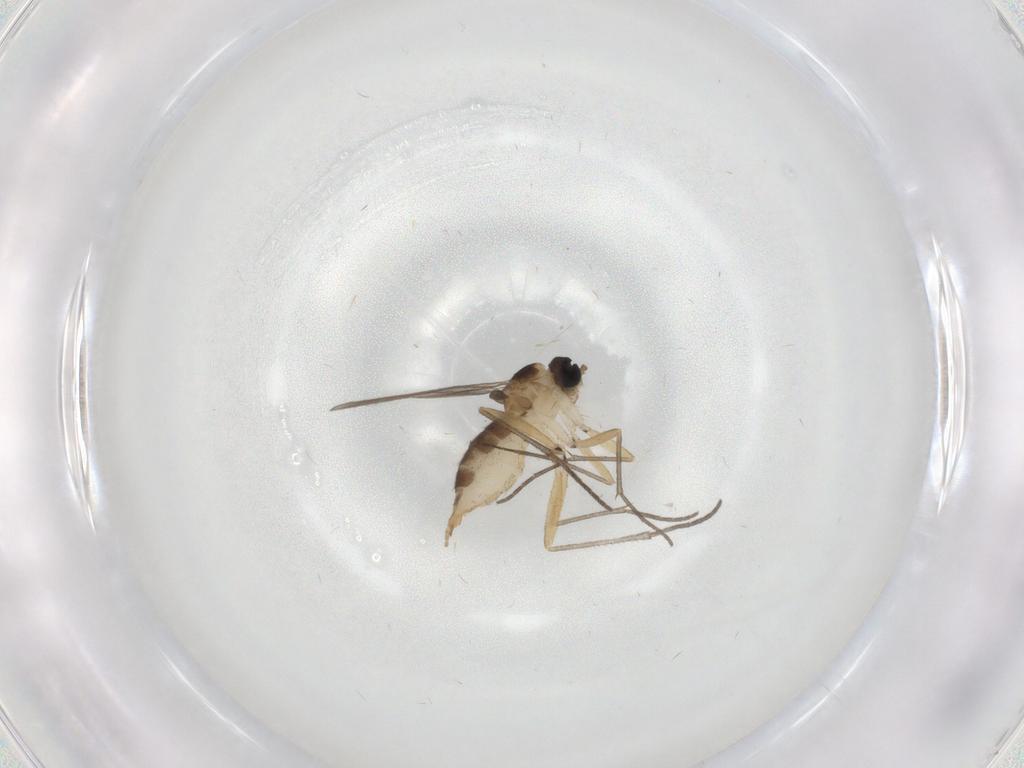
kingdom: Animalia
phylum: Arthropoda
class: Insecta
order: Diptera
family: Sciaridae
